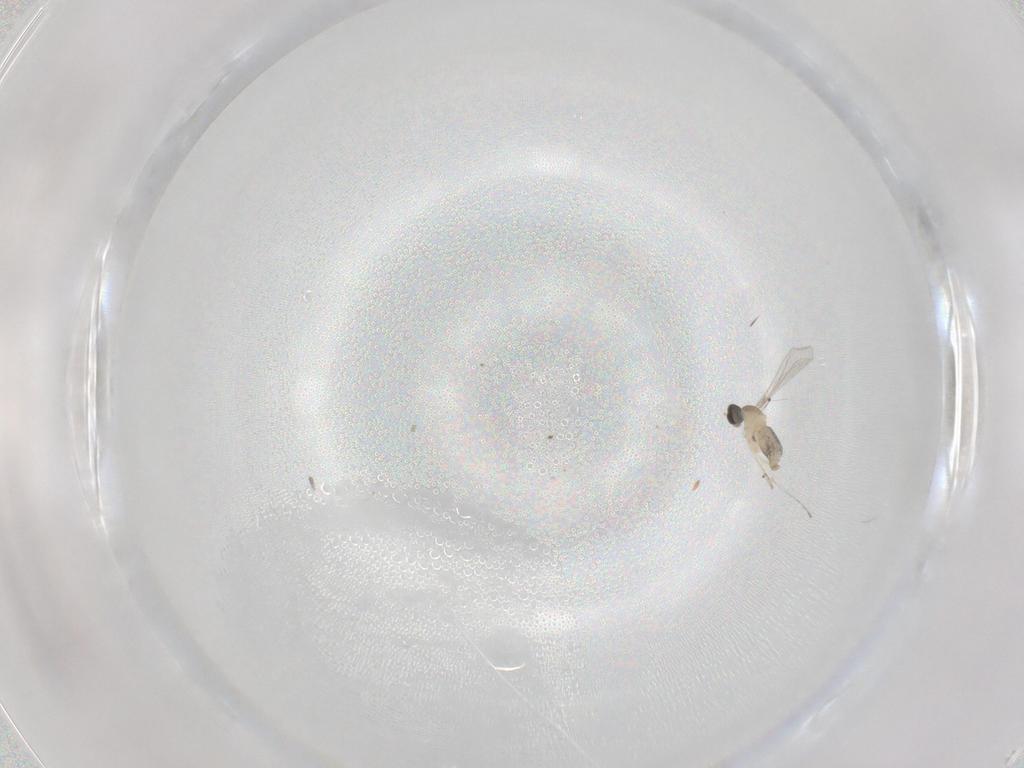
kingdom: Animalia
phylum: Arthropoda
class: Insecta
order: Diptera
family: Cecidomyiidae
